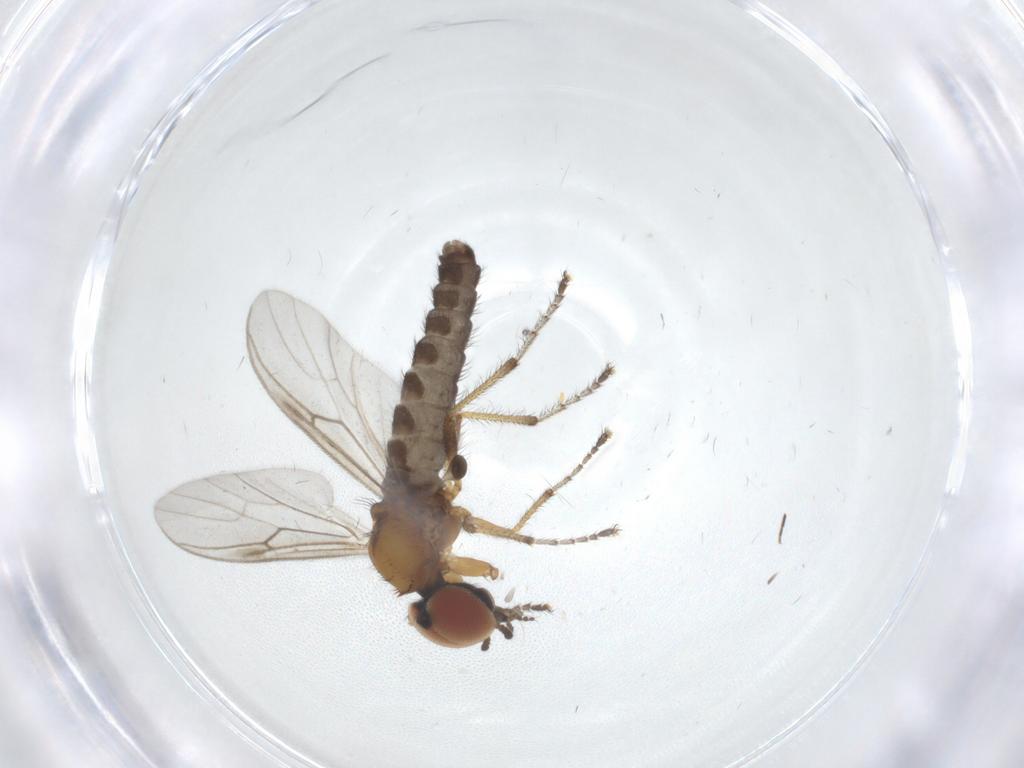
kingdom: Animalia
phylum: Arthropoda
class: Insecta
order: Diptera
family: Bibionidae
